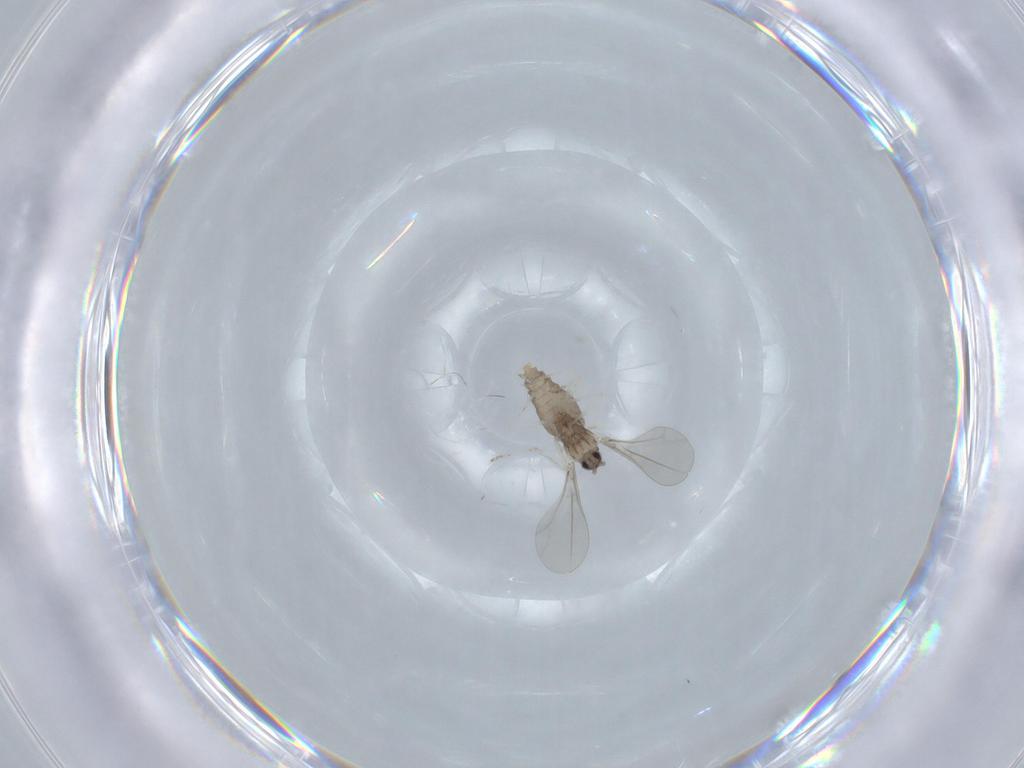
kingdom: Animalia
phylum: Arthropoda
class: Insecta
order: Diptera
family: Cecidomyiidae
